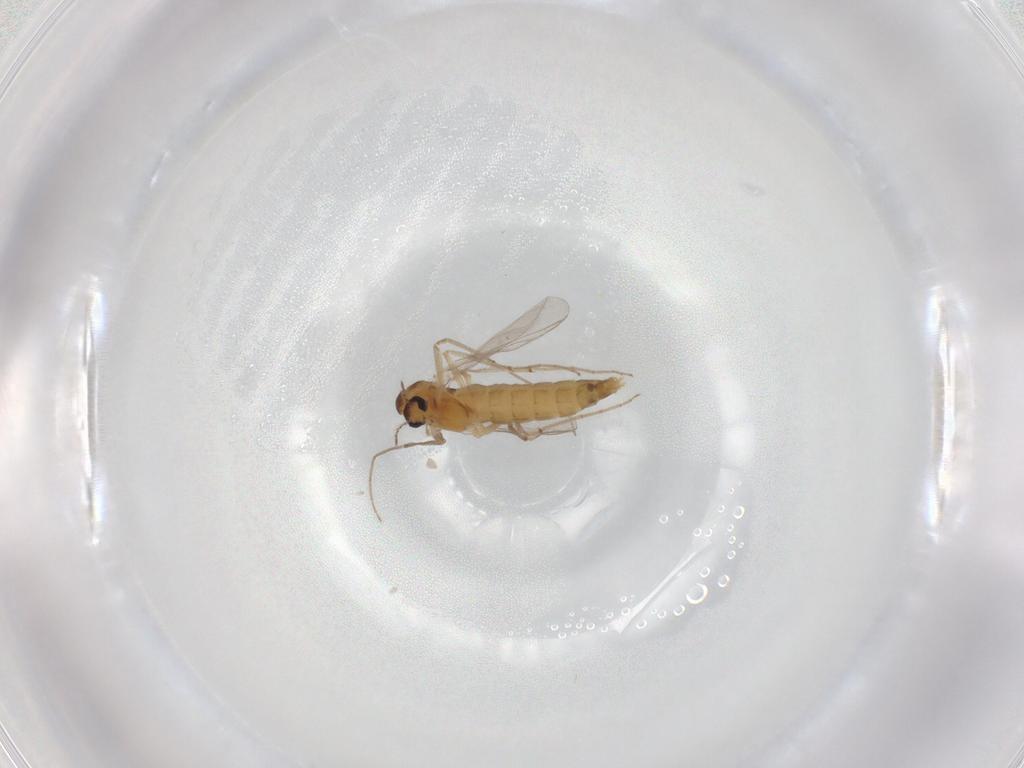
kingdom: Animalia
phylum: Arthropoda
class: Insecta
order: Diptera
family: Chironomidae
